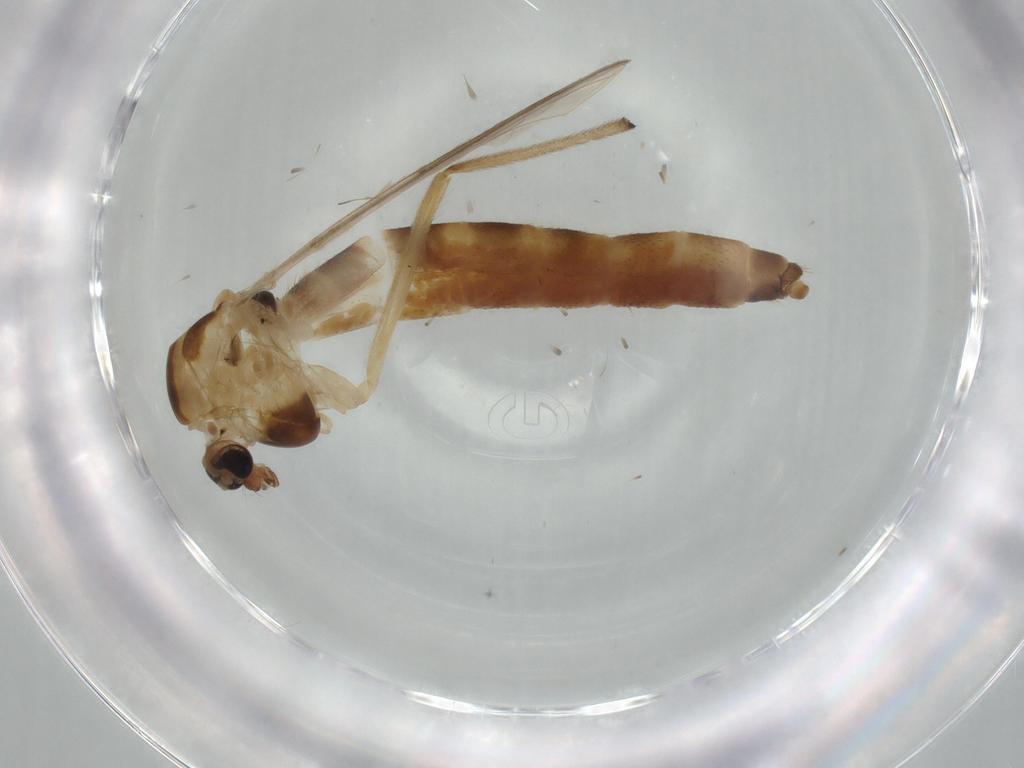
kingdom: Animalia
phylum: Arthropoda
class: Insecta
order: Diptera
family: Chironomidae
